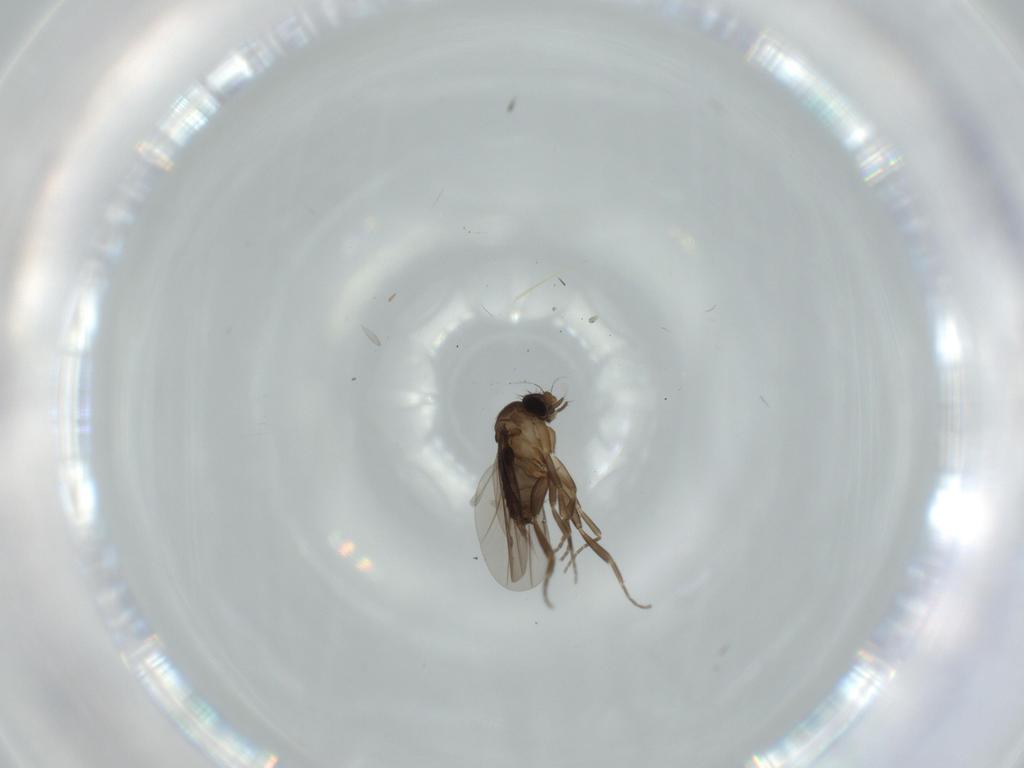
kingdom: Animalia
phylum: Arthropoda
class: Insecta
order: Diptera
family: Cecidomyiidae
